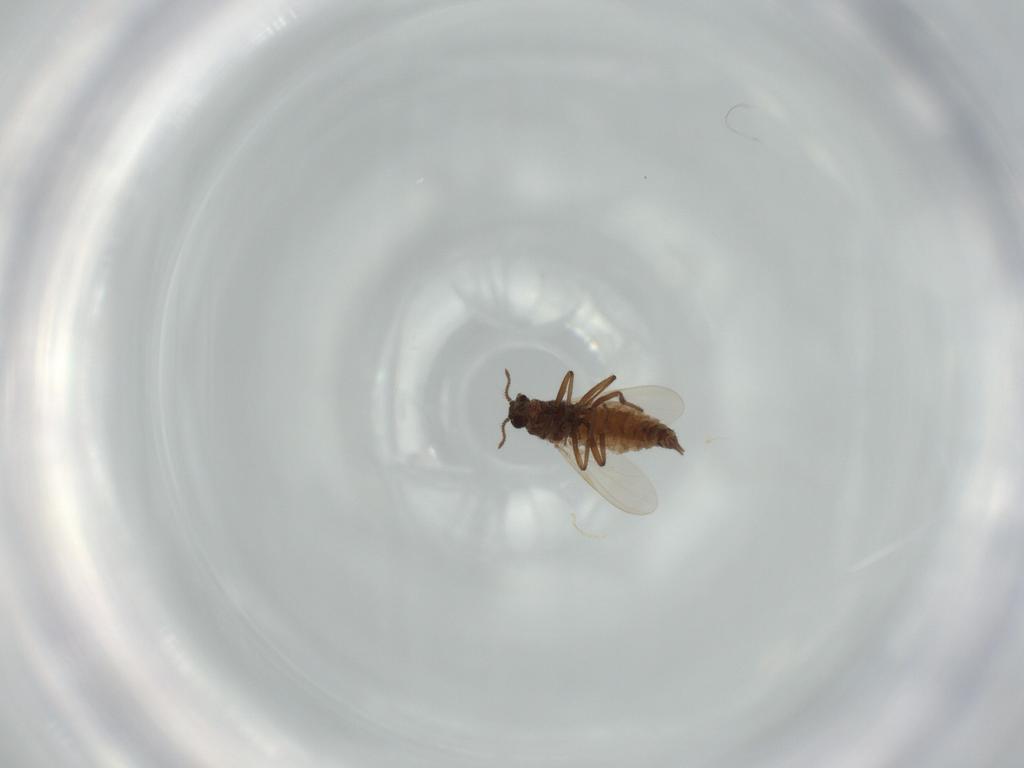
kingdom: Animalia
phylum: Arthropoda
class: Insecta
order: Diptera
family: Ceratopogonidae
